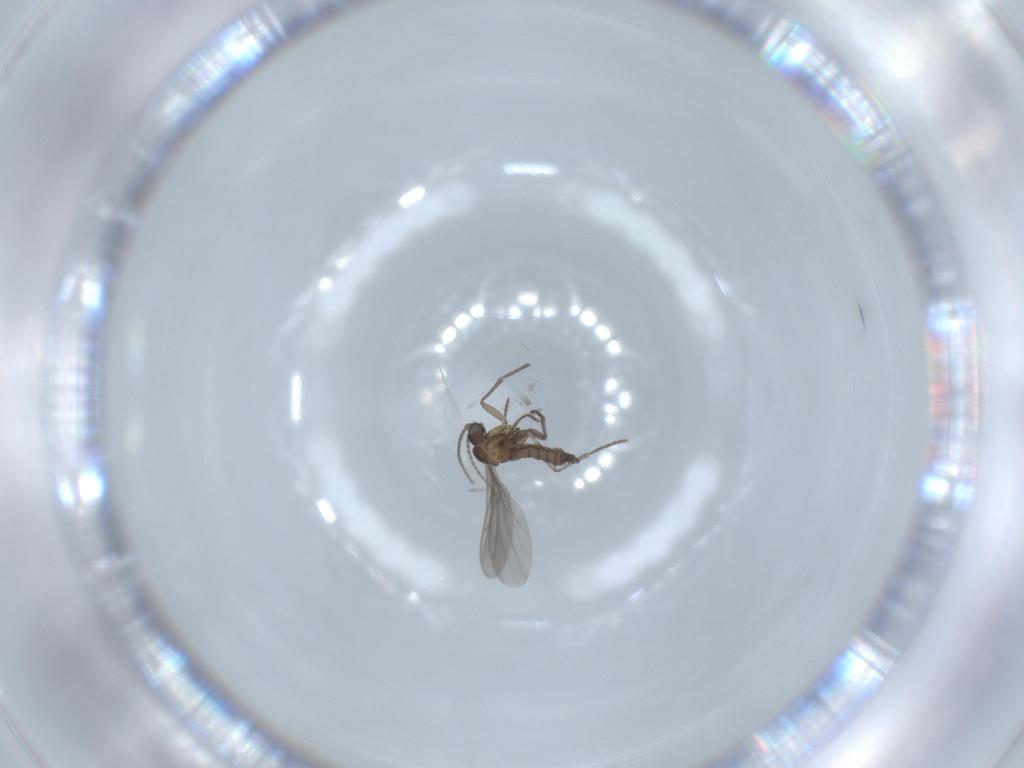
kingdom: Animalia
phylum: Arthropoda
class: Insecta
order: Diptera
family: Sciaridae
